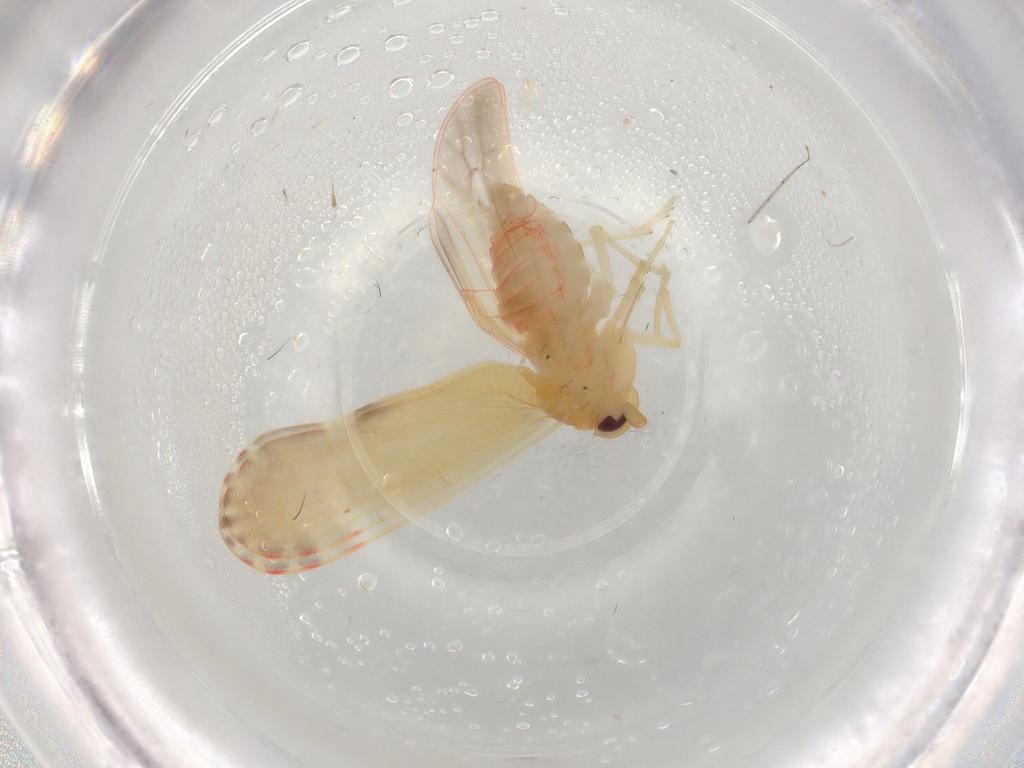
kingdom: Animalia
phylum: Arthropoda
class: Insecta
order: Hemiptera
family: Derbidae
